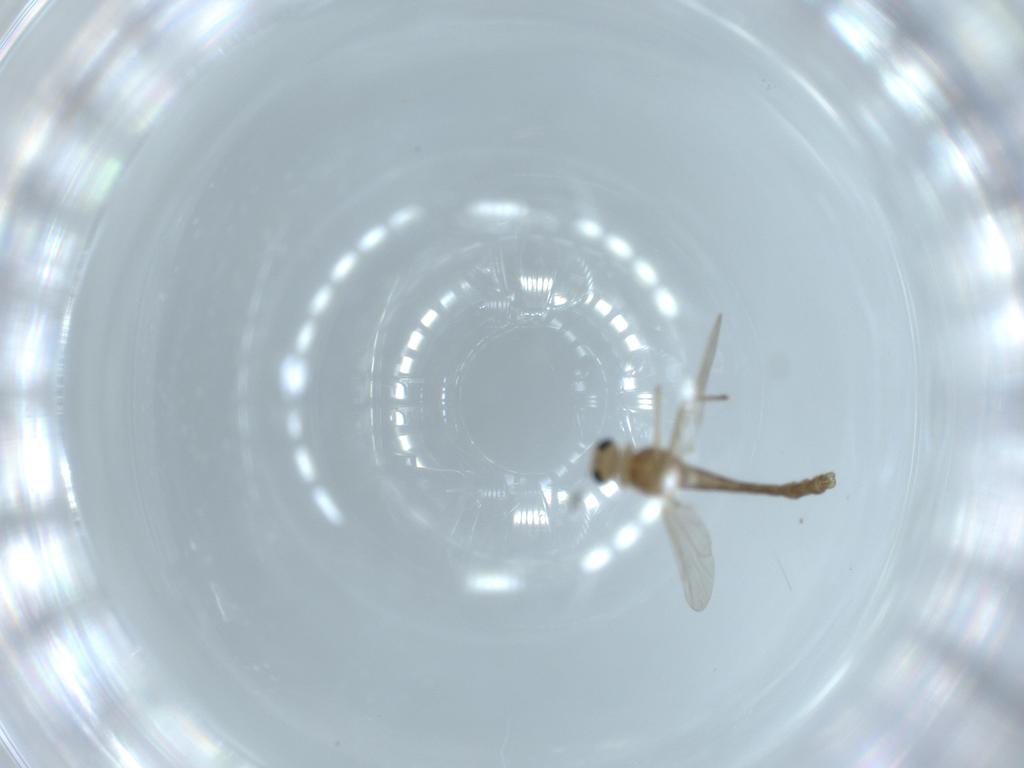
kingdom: Animalia
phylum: Arthropoda
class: Insecta
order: Diptera
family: Chironomidae
